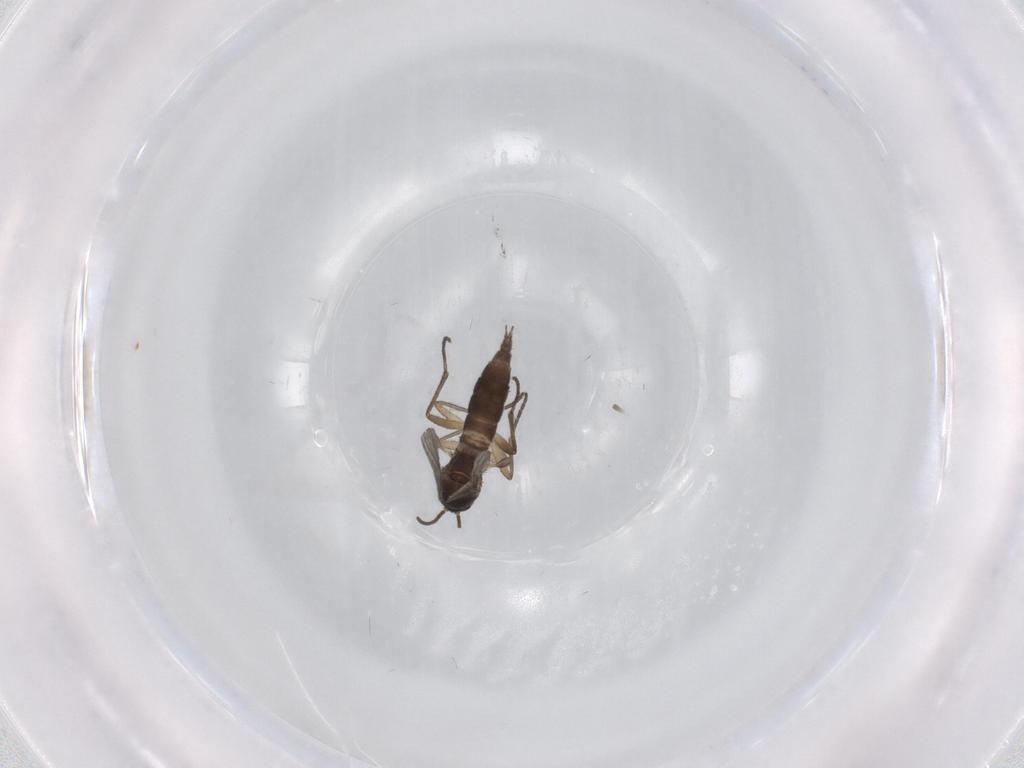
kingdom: Animalia
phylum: Arthropoda
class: Insecta
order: Diptera
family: Sciaridae
